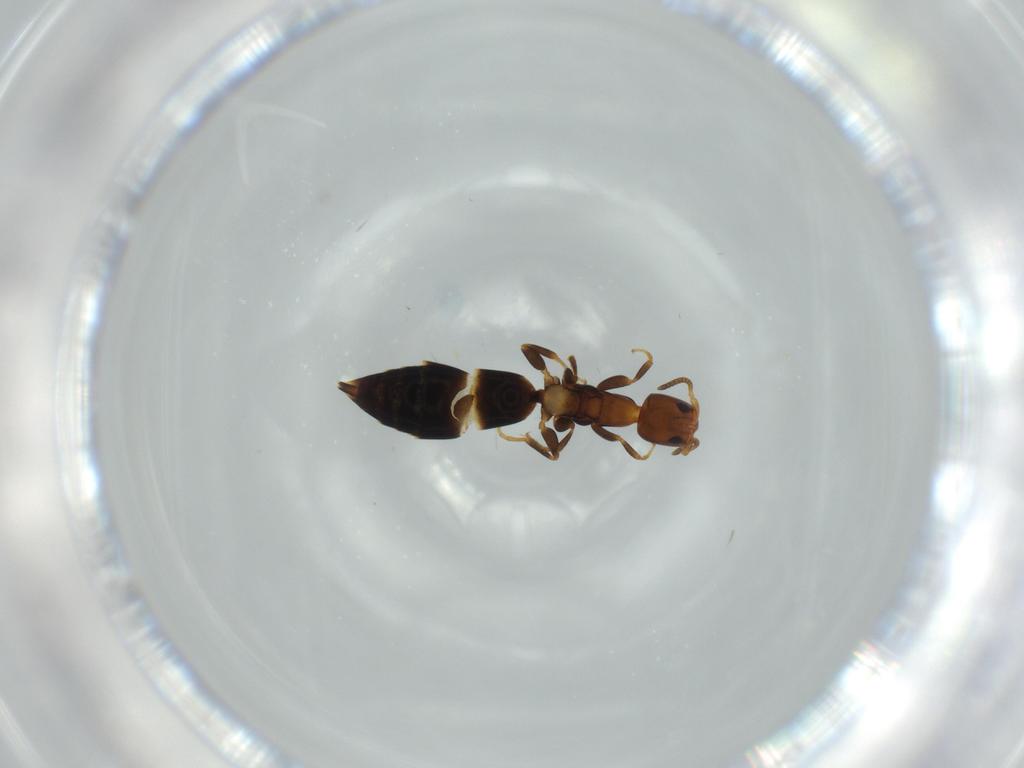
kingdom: Animalia
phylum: Arthropoda
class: Insecta
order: Hymenoptera
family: Bethylidae
